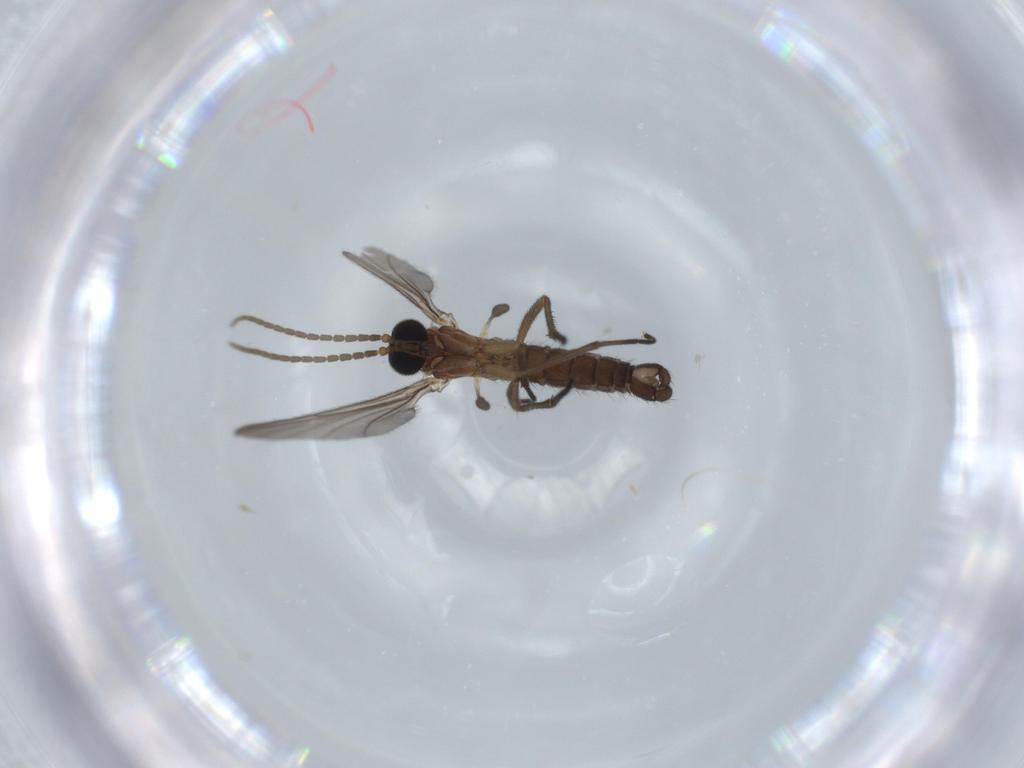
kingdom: Animalia
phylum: Arthropoda
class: Insecta
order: Diptera
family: Sciaridae
